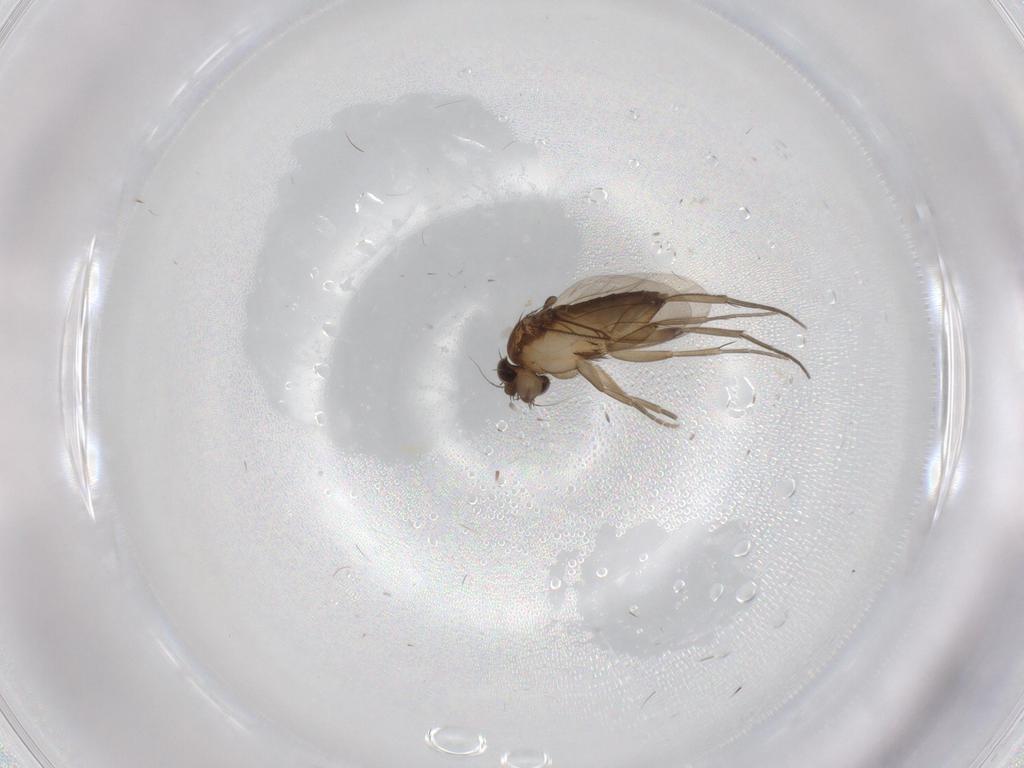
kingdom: Animalia
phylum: Arthropoda
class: Insecta
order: Diptera
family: Phoridae
